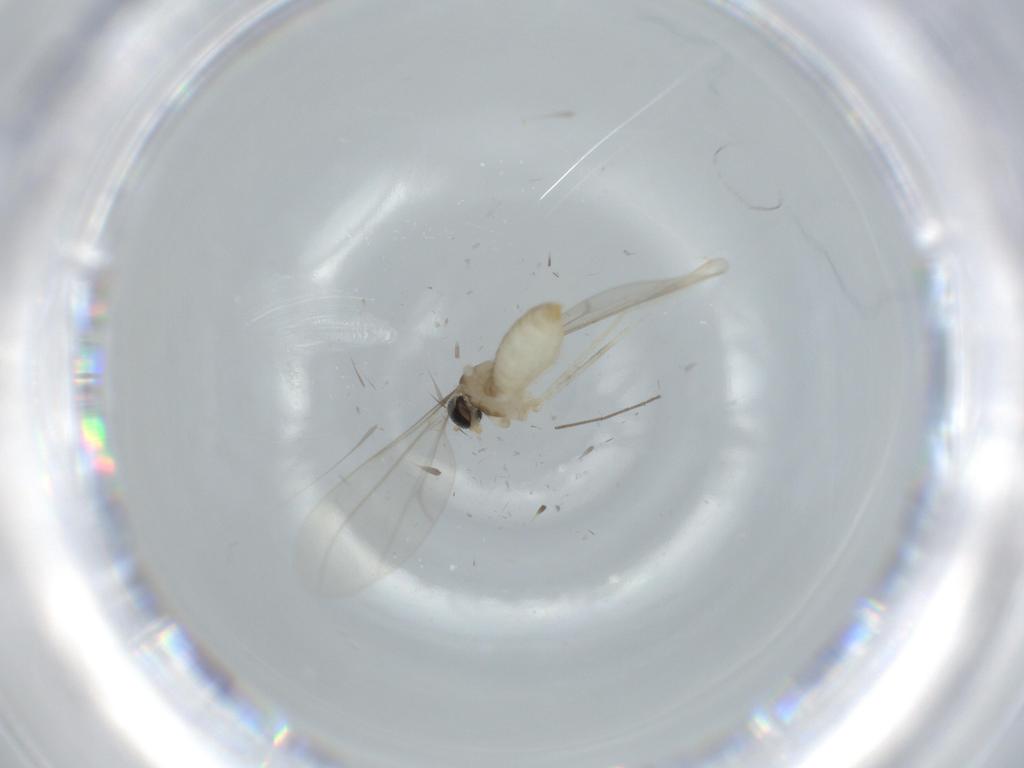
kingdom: Animalia
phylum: Arthropoda
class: Insecta
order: Diptera
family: Chironomidae
